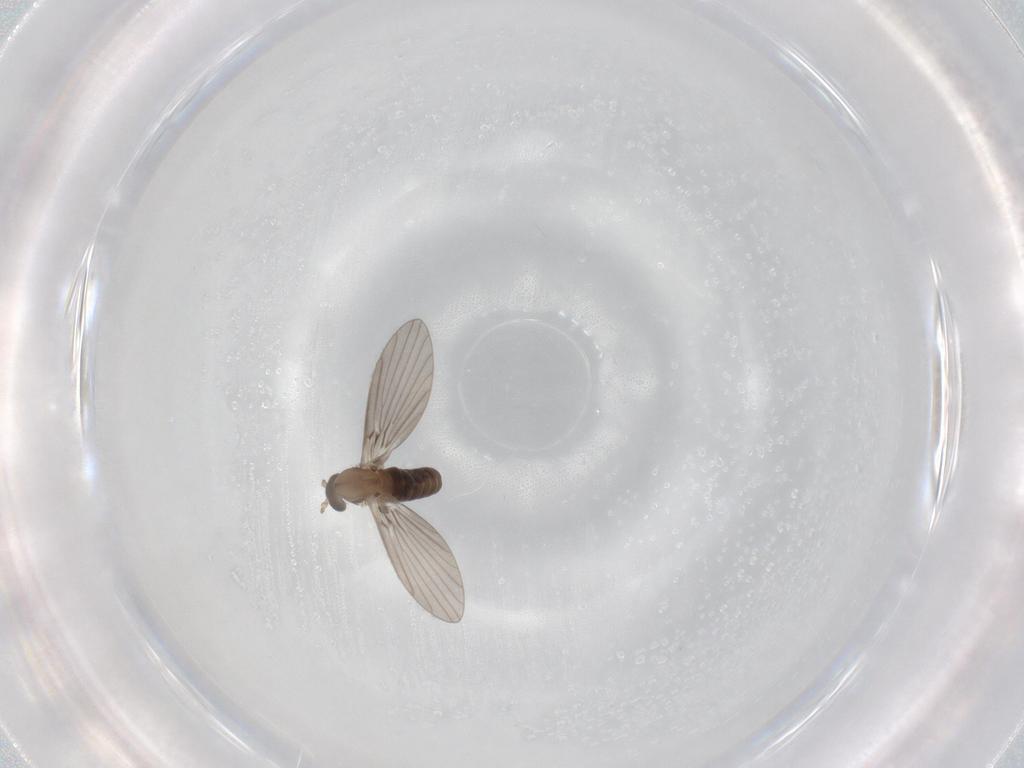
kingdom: Animalia
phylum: Arthropoda
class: Insecta
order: Diptera
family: Psychodidae
